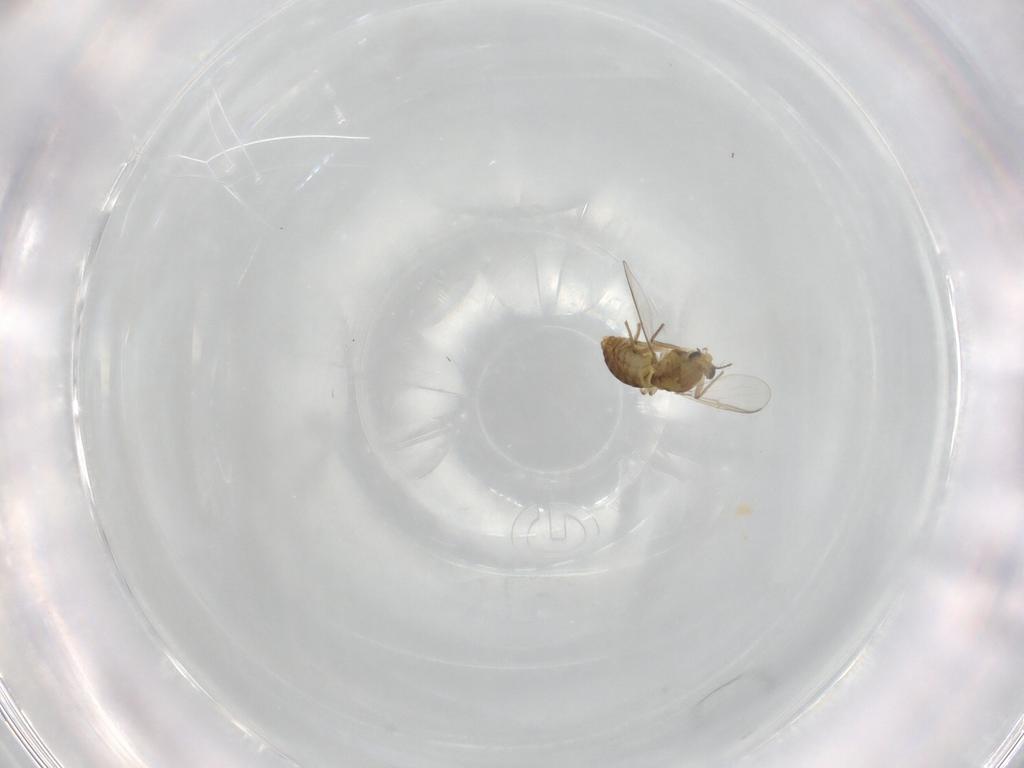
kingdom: Animalia
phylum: Arthropoda
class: Insecta
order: Diptera
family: Chironomidae
